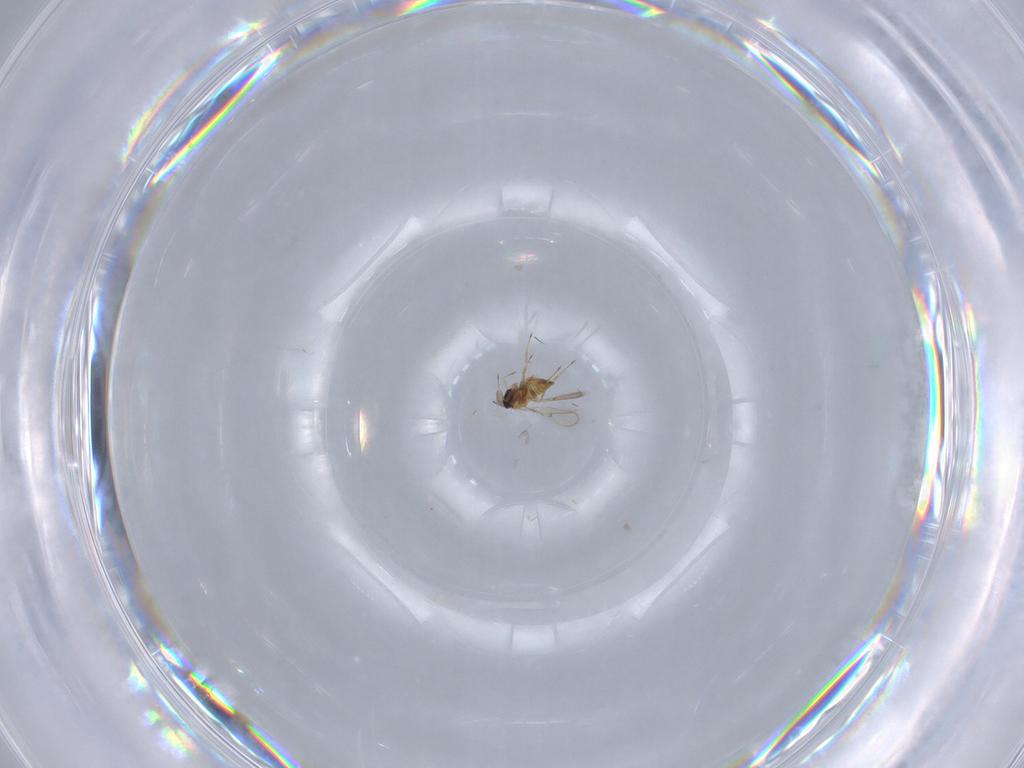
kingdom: Animalia
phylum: Arthropoda
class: Insecta
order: Hymenoptera
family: Trichogrammatidae
